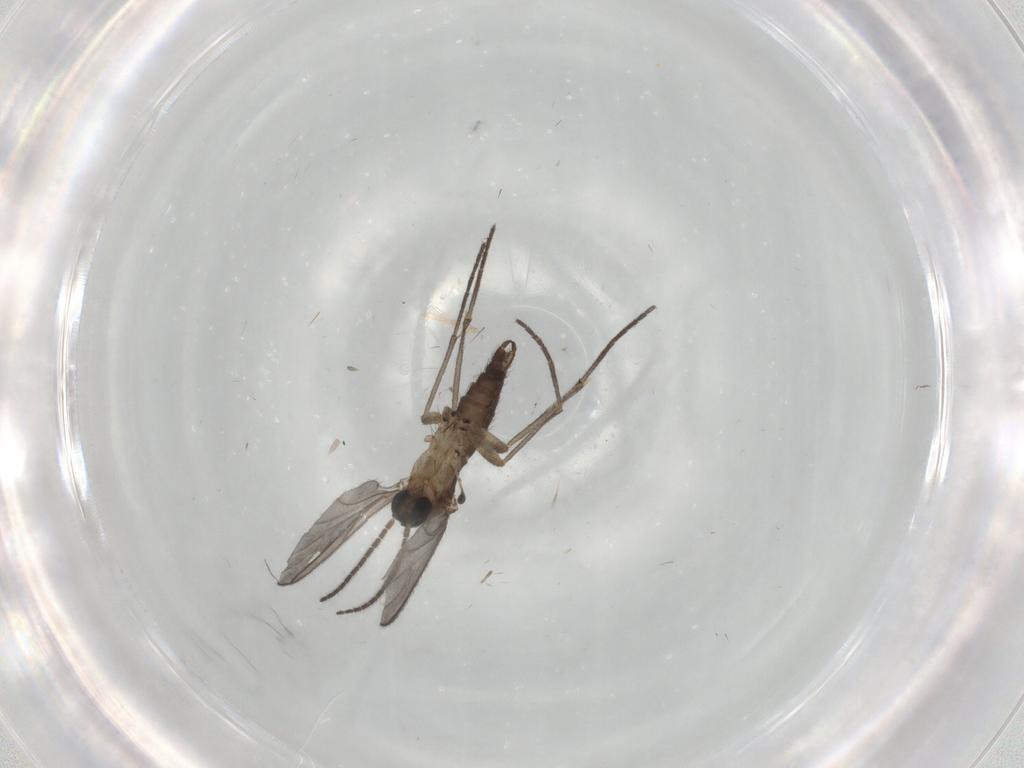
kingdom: Animalia
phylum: Arthropoda
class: Insecta
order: Diptera
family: Sciaridae
